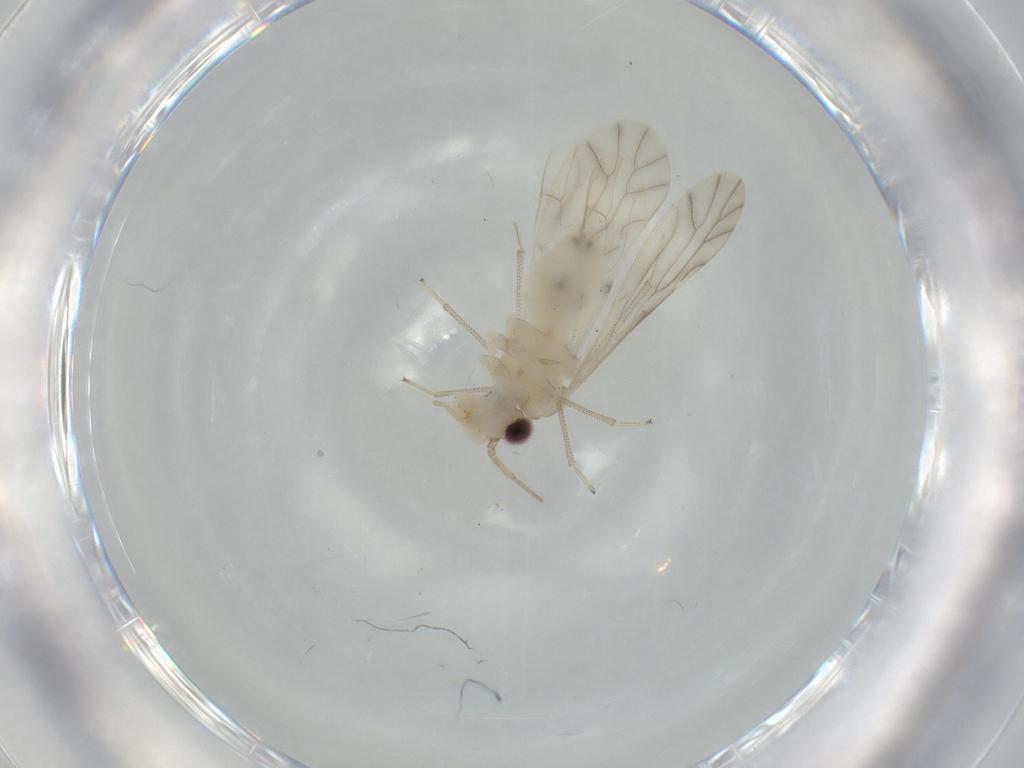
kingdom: Animalia
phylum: Arthropoda
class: Insecta
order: Psocodea
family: Caeciliusidae
